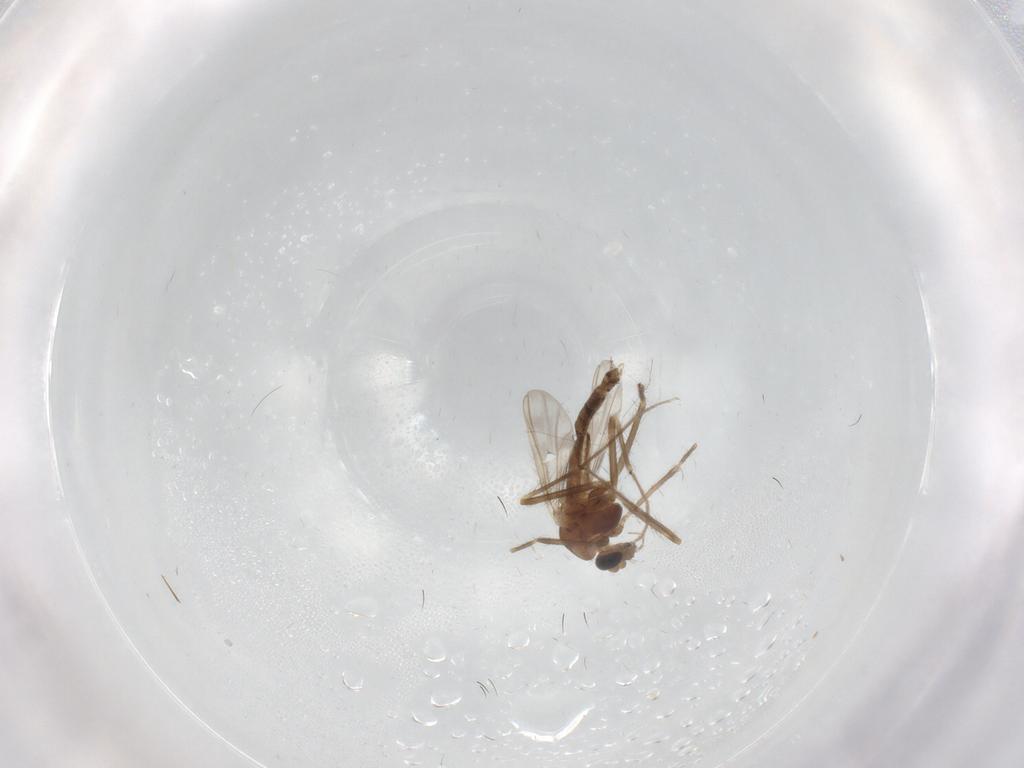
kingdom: Animalia
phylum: Arthropoda
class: Insecta
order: Diptera
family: Chironomidae
